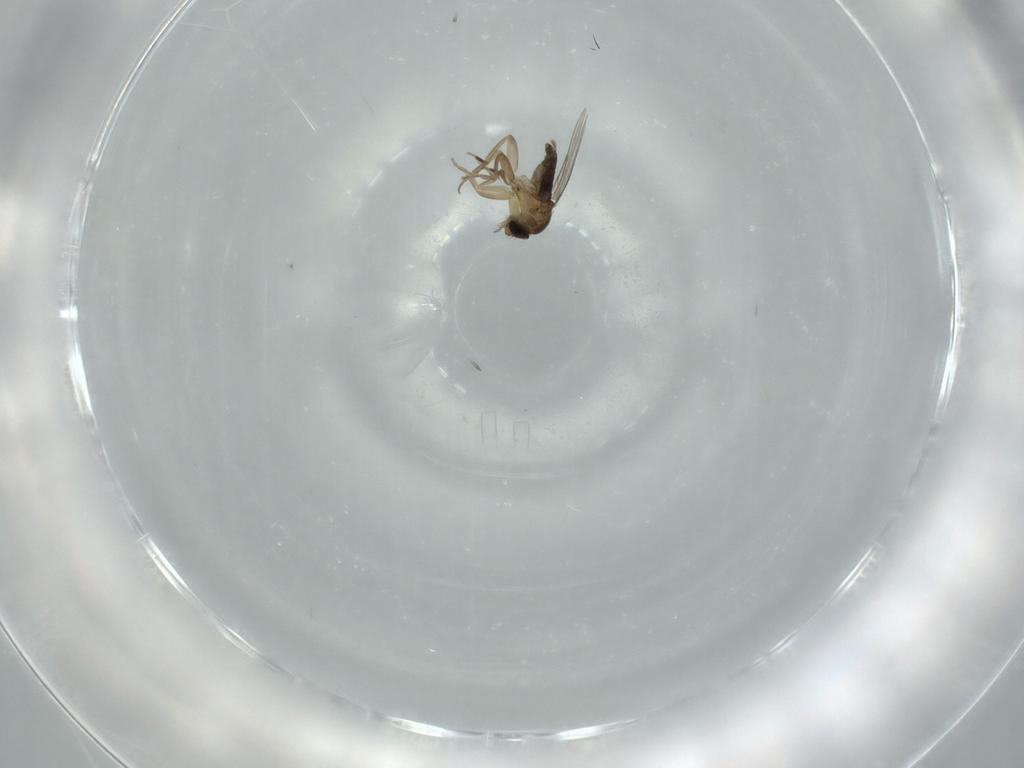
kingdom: Animalia
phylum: Arthropoda
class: Insecta
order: Diptera
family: Phoridae
